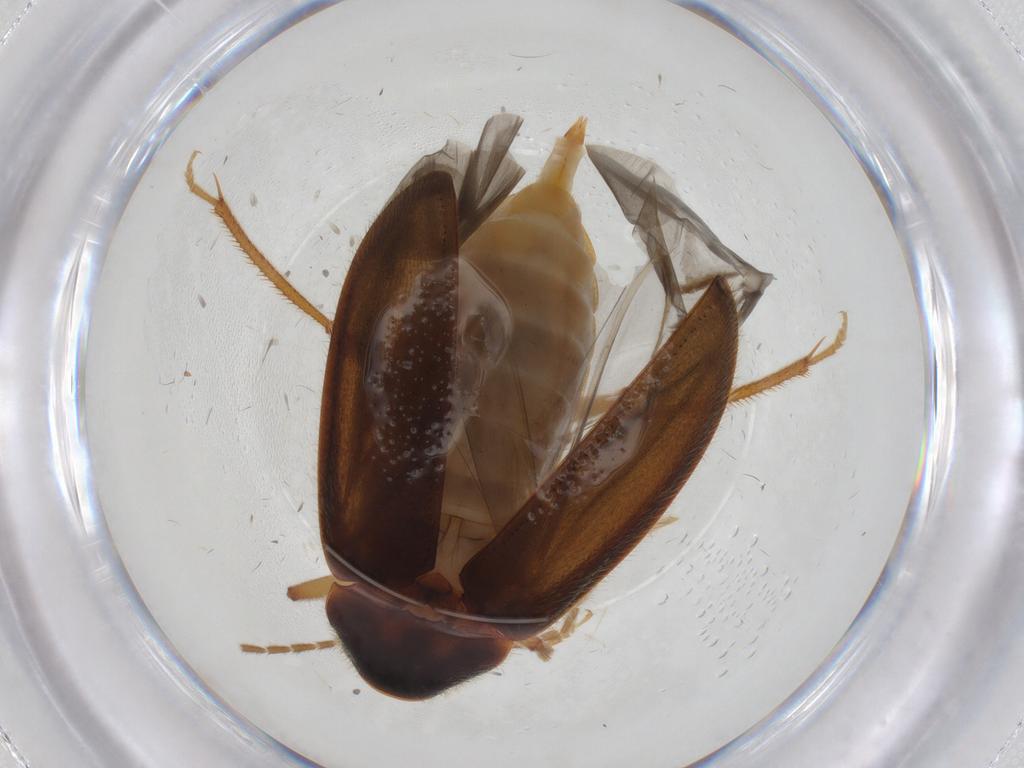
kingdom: Animalia
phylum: Arthropoda
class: Insecta
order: Coleoptera
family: Ptilodactylidae
